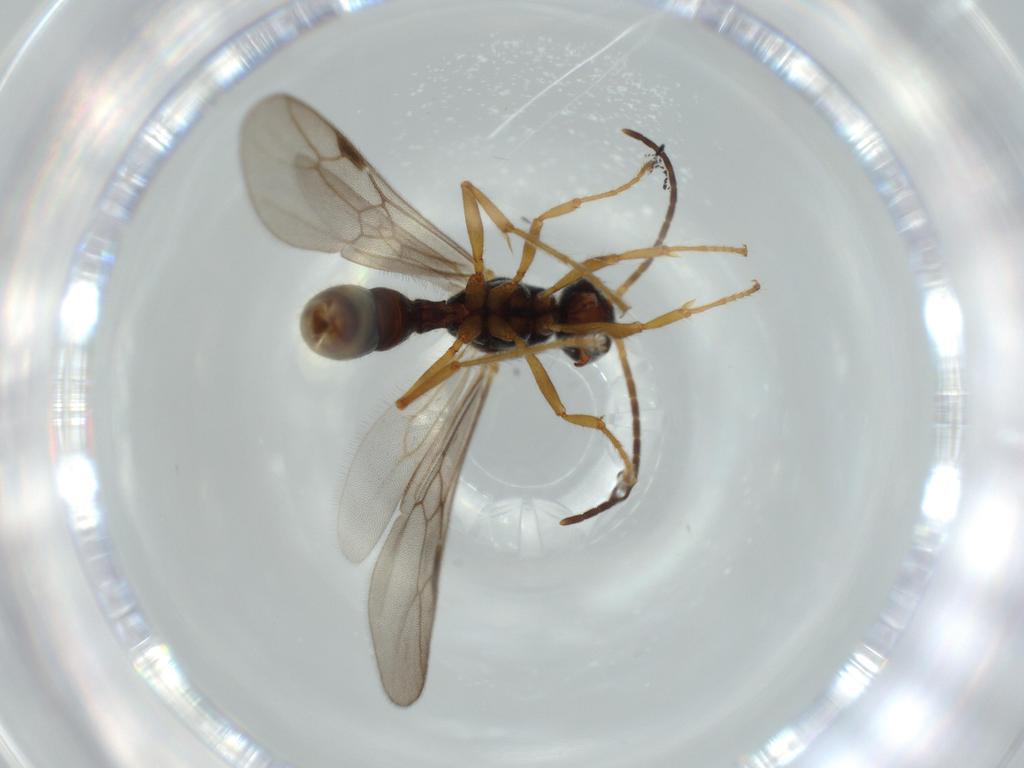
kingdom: Animalia
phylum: Arthropoda
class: Insecta
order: Hymenoptera
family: Formicidae
